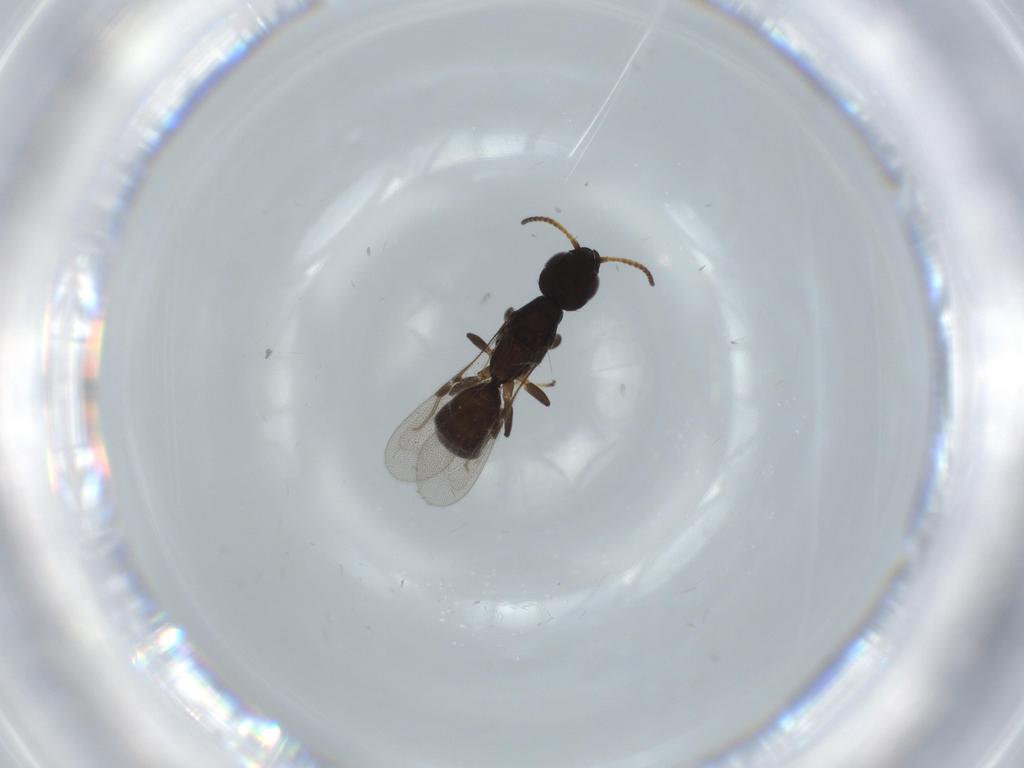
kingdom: Animalia
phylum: Arthropoda
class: Insecta
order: Hymenoptera
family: Bethylidae
